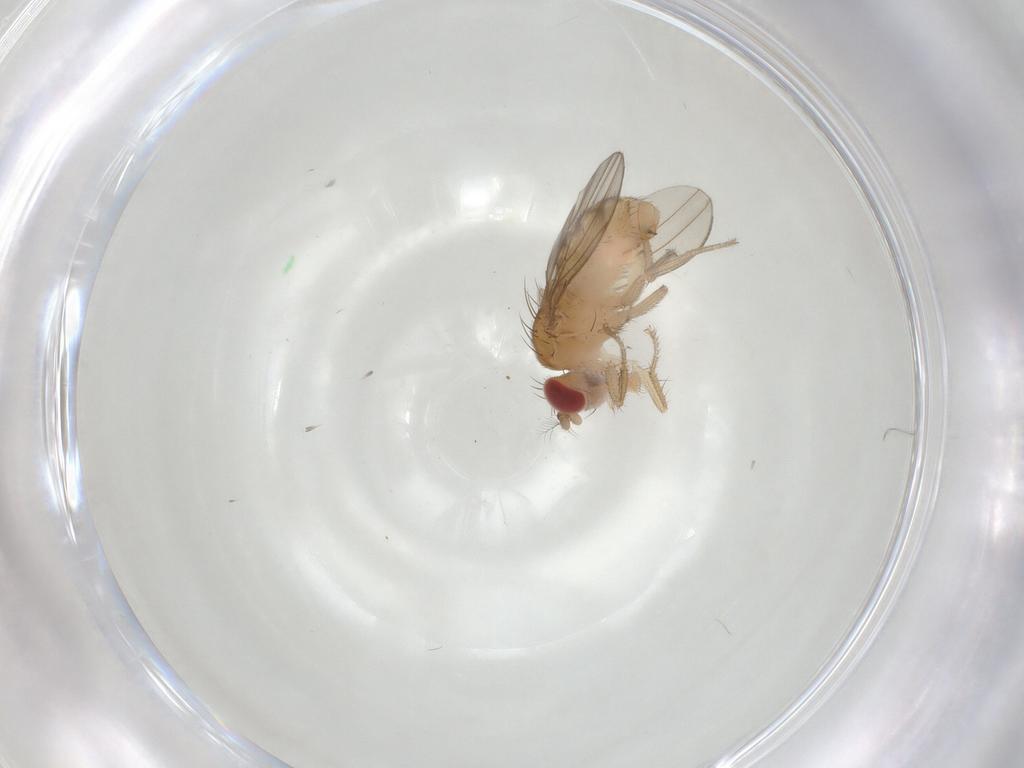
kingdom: Animalia
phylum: Arthropoda
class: Insecta
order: Diptera
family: Drosophilidae
